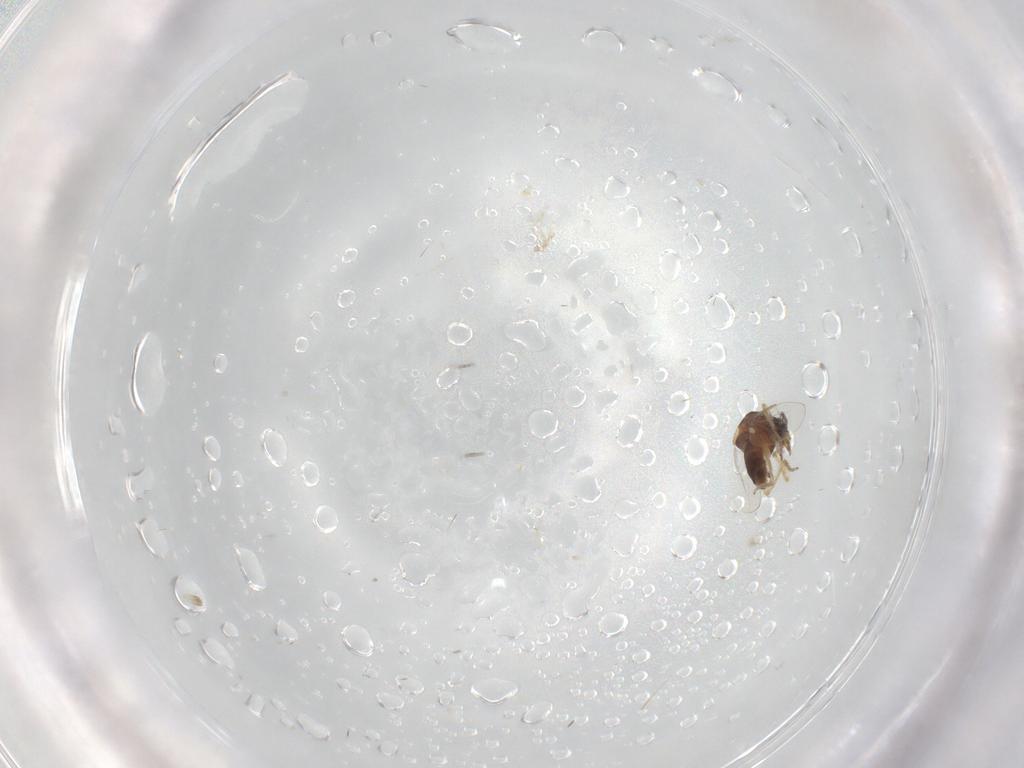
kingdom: Animalia
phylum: Arthropoda
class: Insecta
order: Diptera
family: Ceratopogonidae
